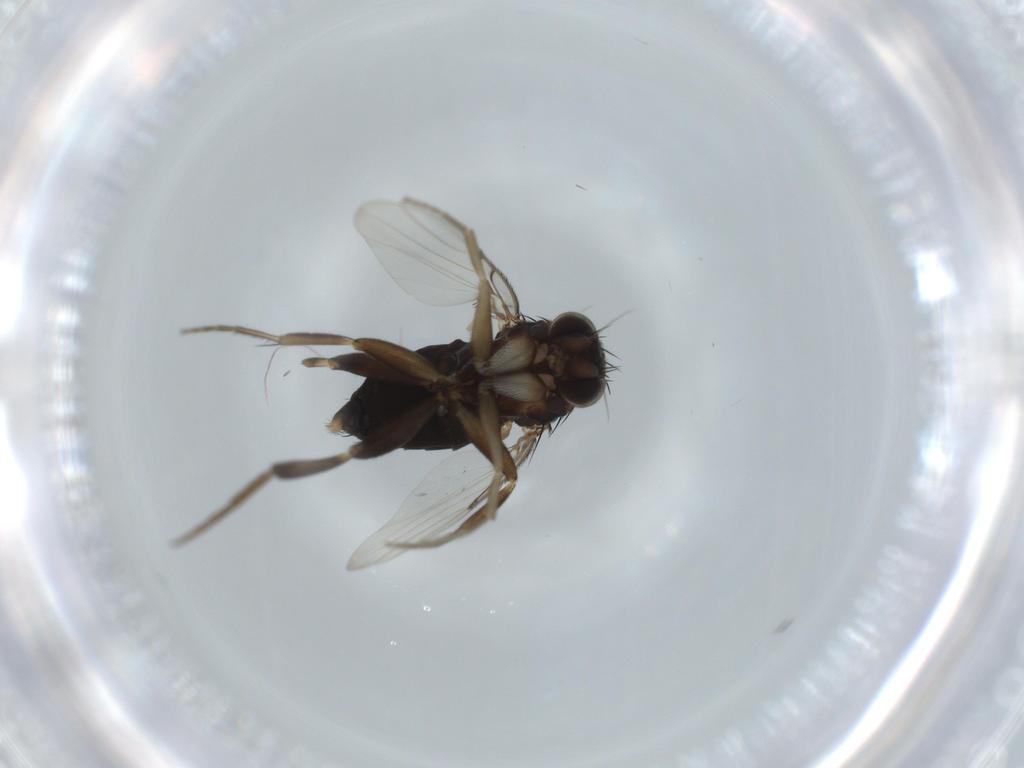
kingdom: Animalia
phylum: Arthropoda
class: Insecta
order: Diptera
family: Phoridae
